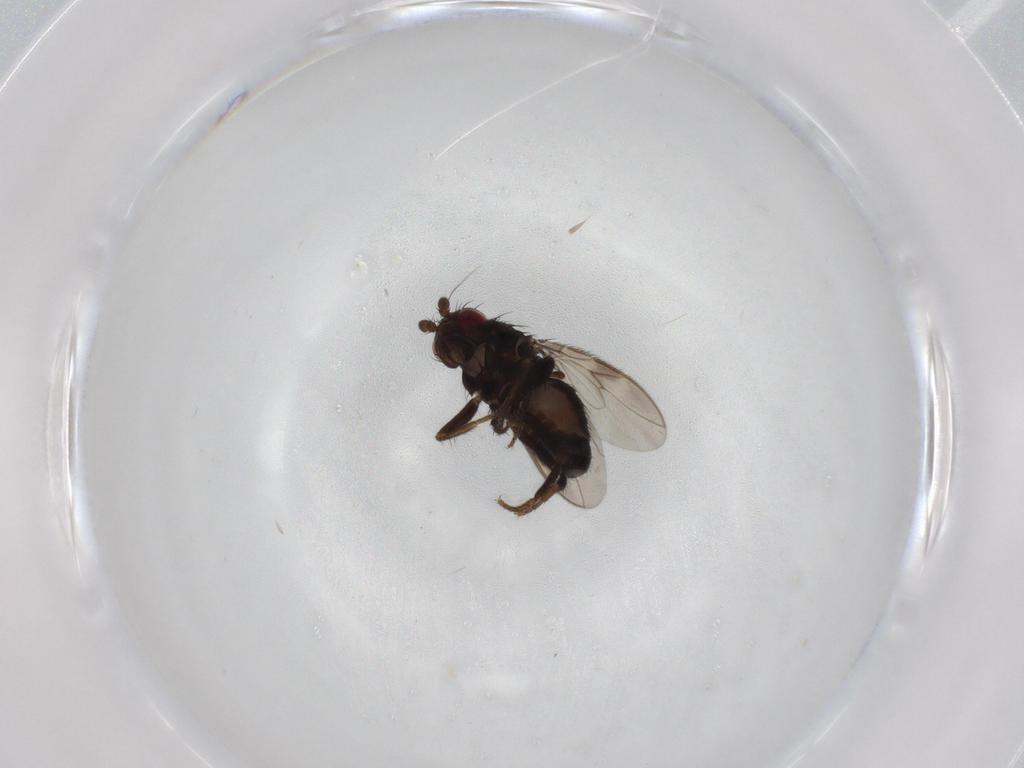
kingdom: Animalia
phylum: Arthropoda
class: Insecta
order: Diptera
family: Sphaeroceridae
